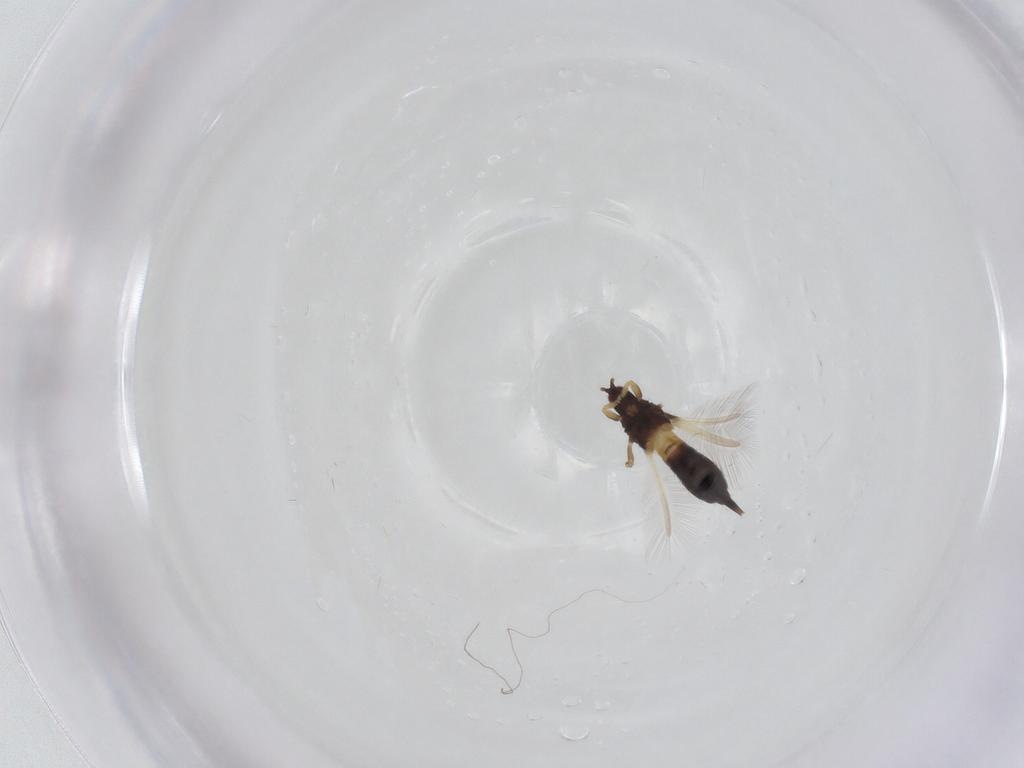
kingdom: Animalia
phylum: Arthropoda
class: Insecta
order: Thysanoptera
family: Phlaeothripidae
